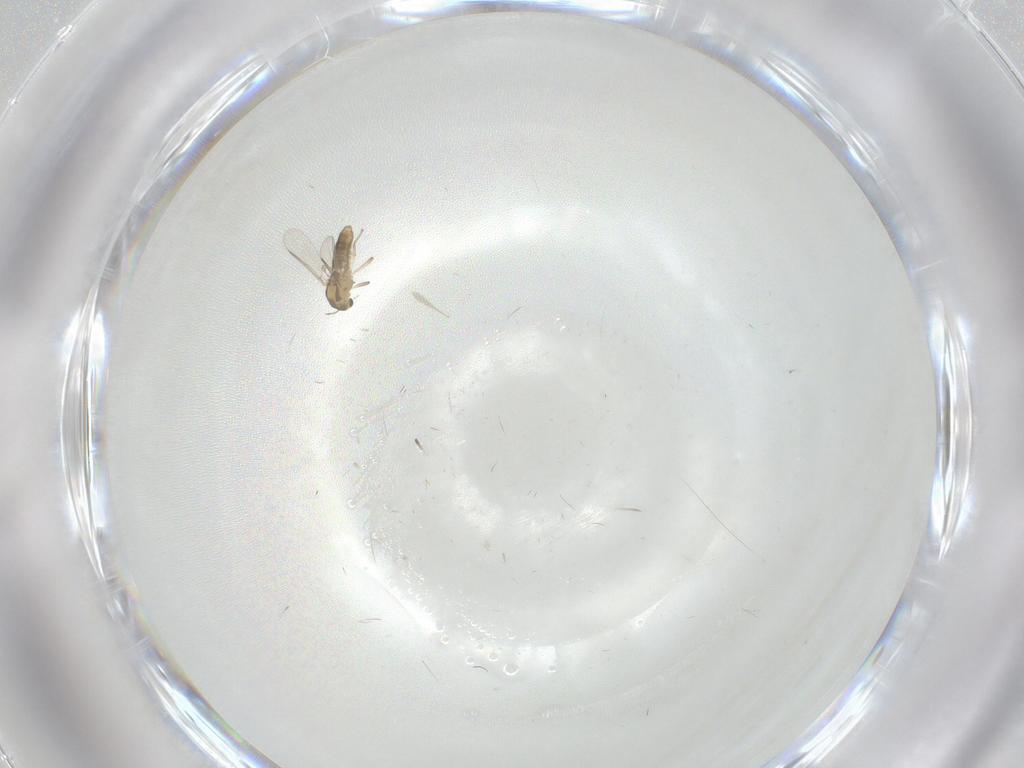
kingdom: Animalia
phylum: Arthropoda
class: Insecta
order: Diptera
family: Chironomidae
